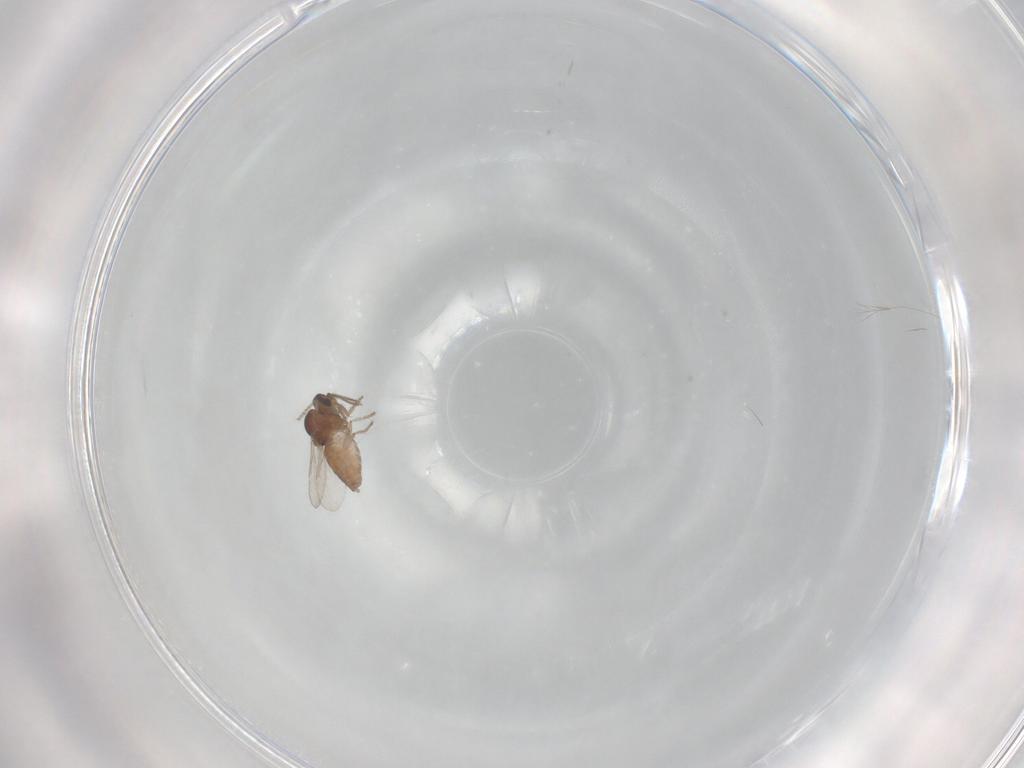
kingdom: Animalia
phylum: Arthropoda
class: Insecta
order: Diptera
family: Ceratopogonidae
